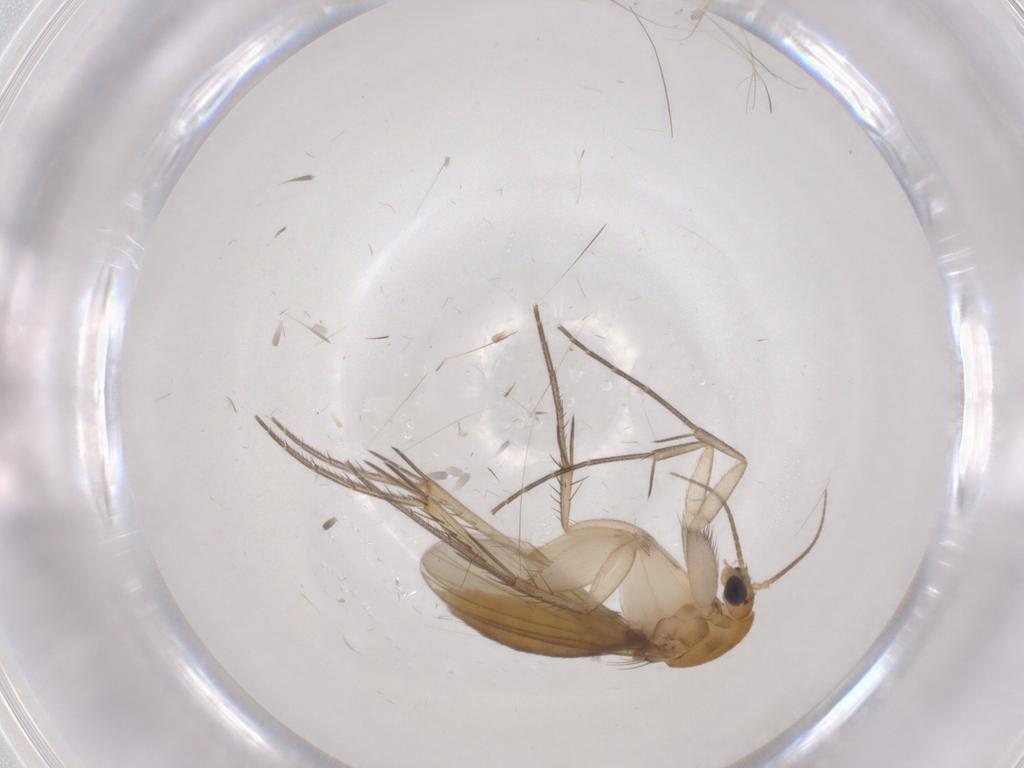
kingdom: Animalia
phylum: Arthropoda
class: Insecta
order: Diptera
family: Mycetophilidae
